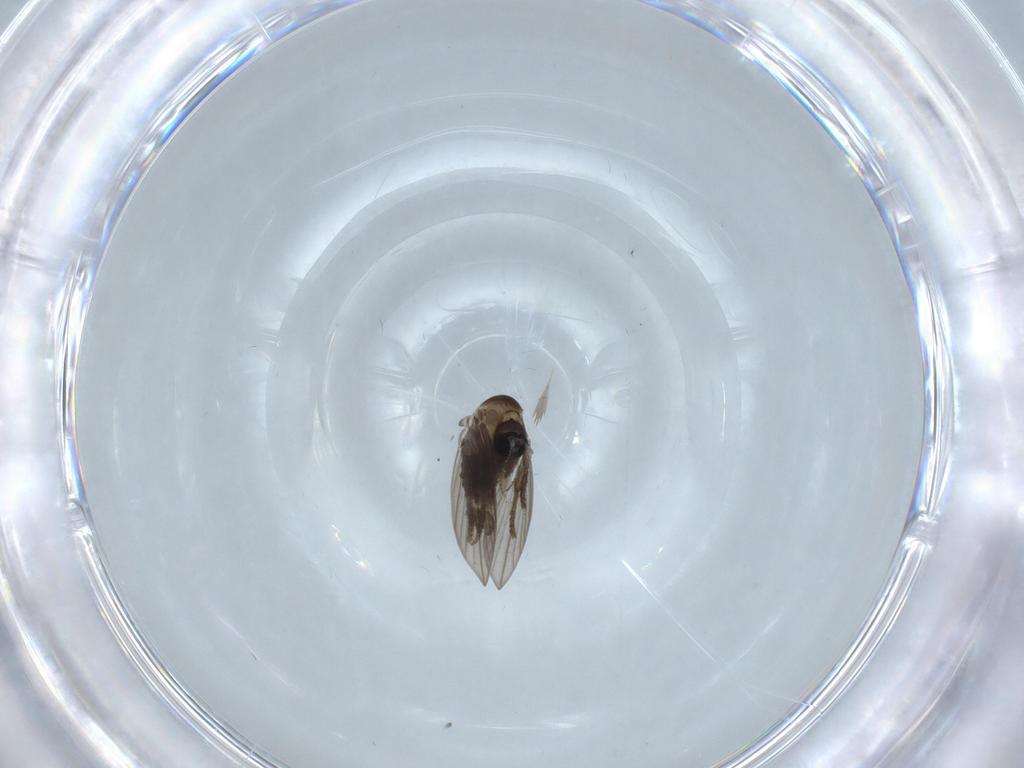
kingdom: Animalia
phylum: Arthropoda
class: Insecta
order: Diptera
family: Psychodidae
